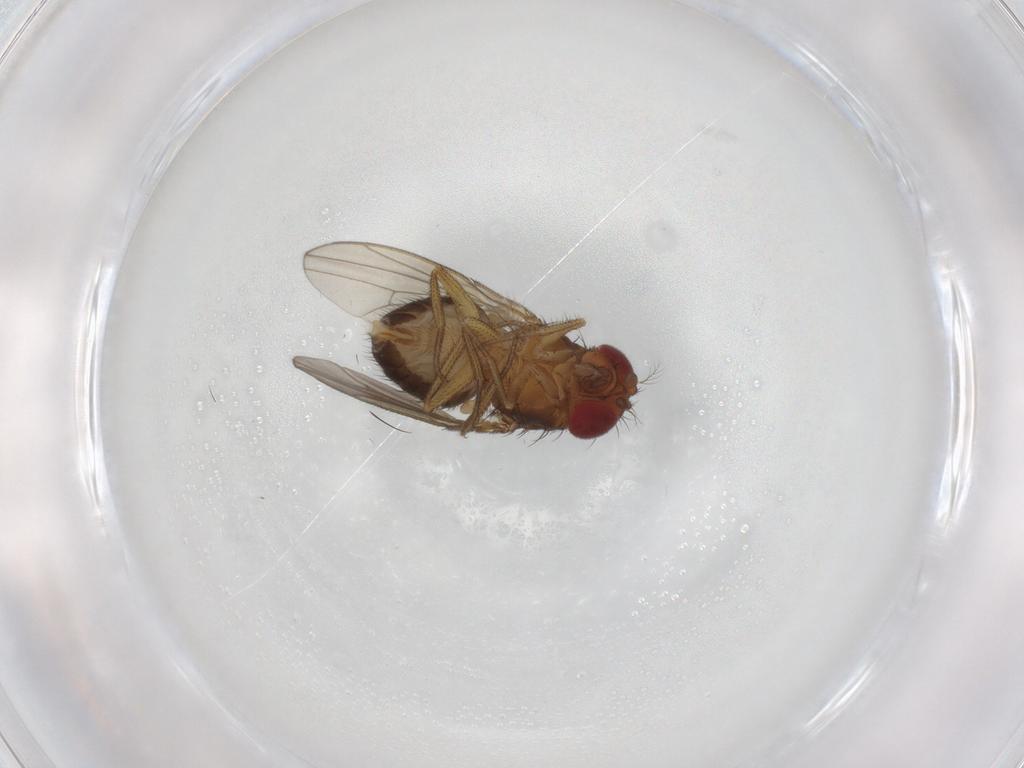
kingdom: Animalia
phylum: Arthropoda
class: Insecta
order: Diptera
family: Drosophilidae
